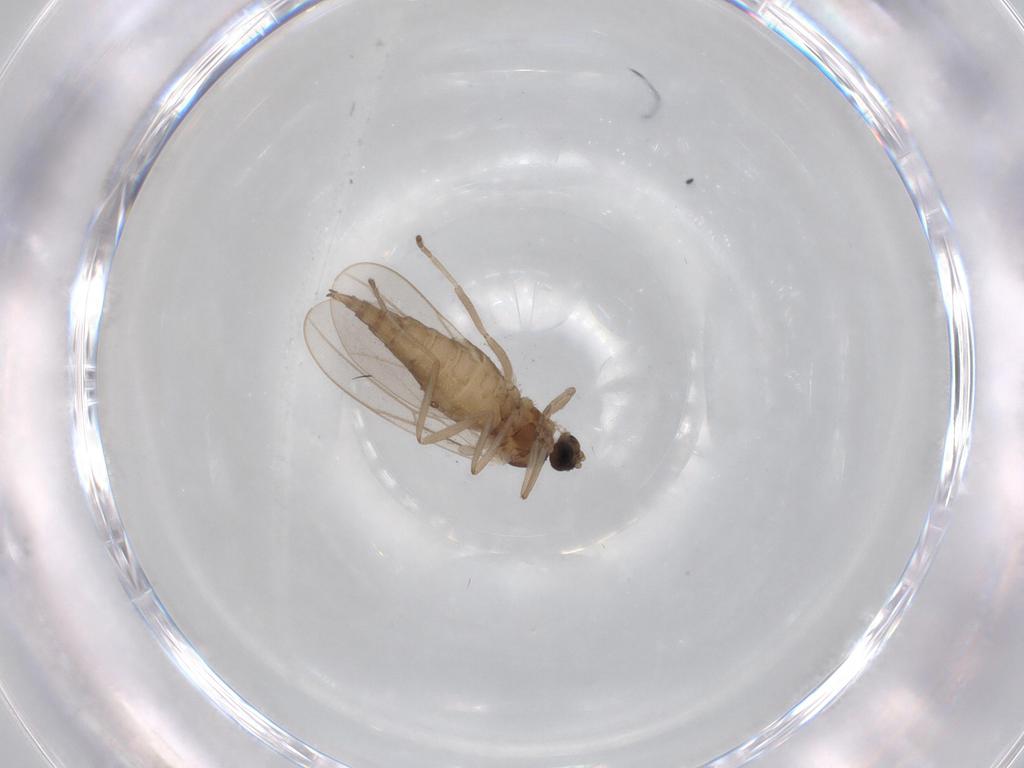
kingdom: Animalia
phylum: Arthropoda
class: Insecta
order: Diptera
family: Cecidomyiidae
